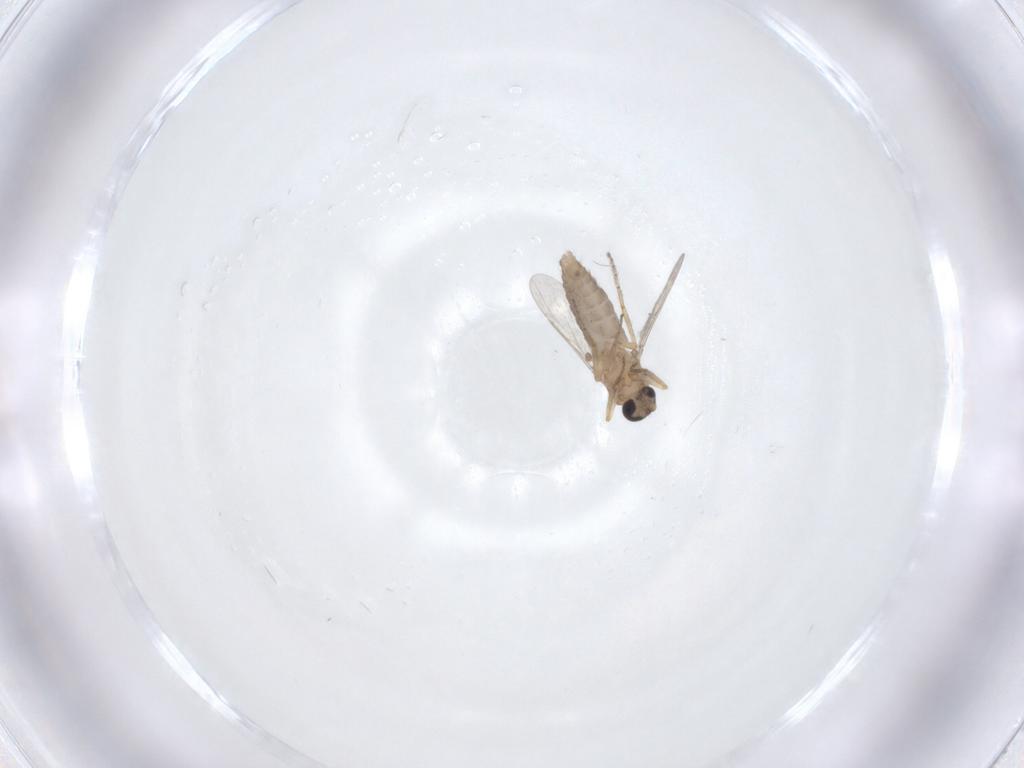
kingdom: Animalia
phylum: Arthropoda
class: Insecta
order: Diptera
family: Ceratopogonidae
